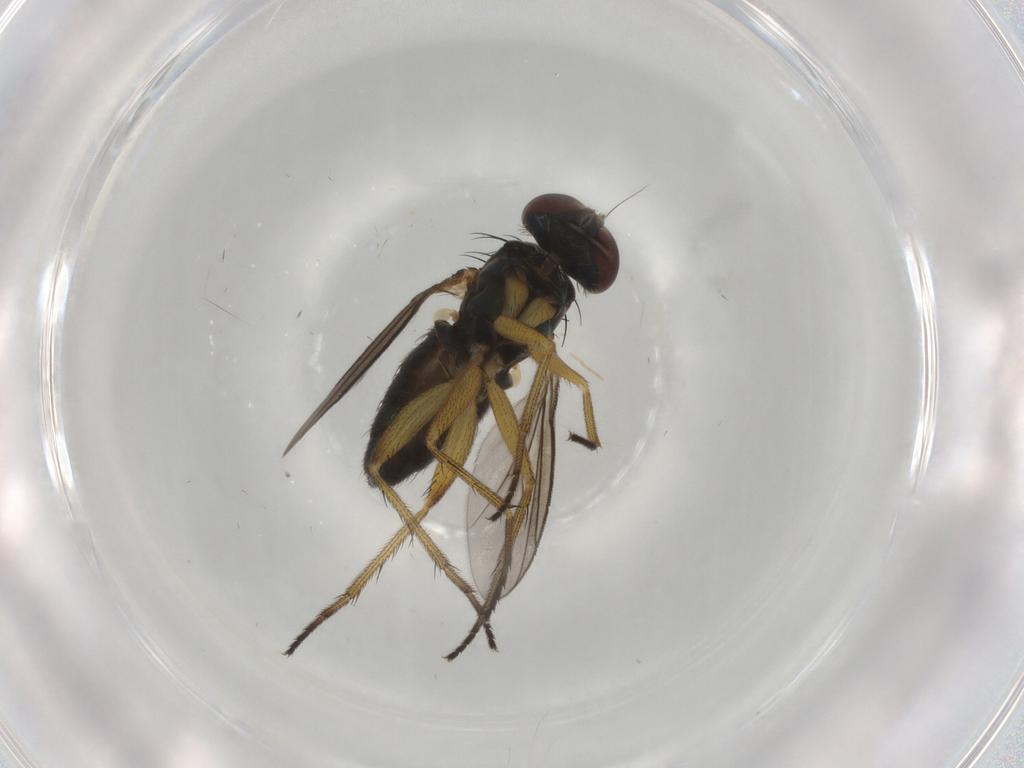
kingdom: Animalia
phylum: Arthropoda
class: Insecta
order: Diptera
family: Dolichopodidae
